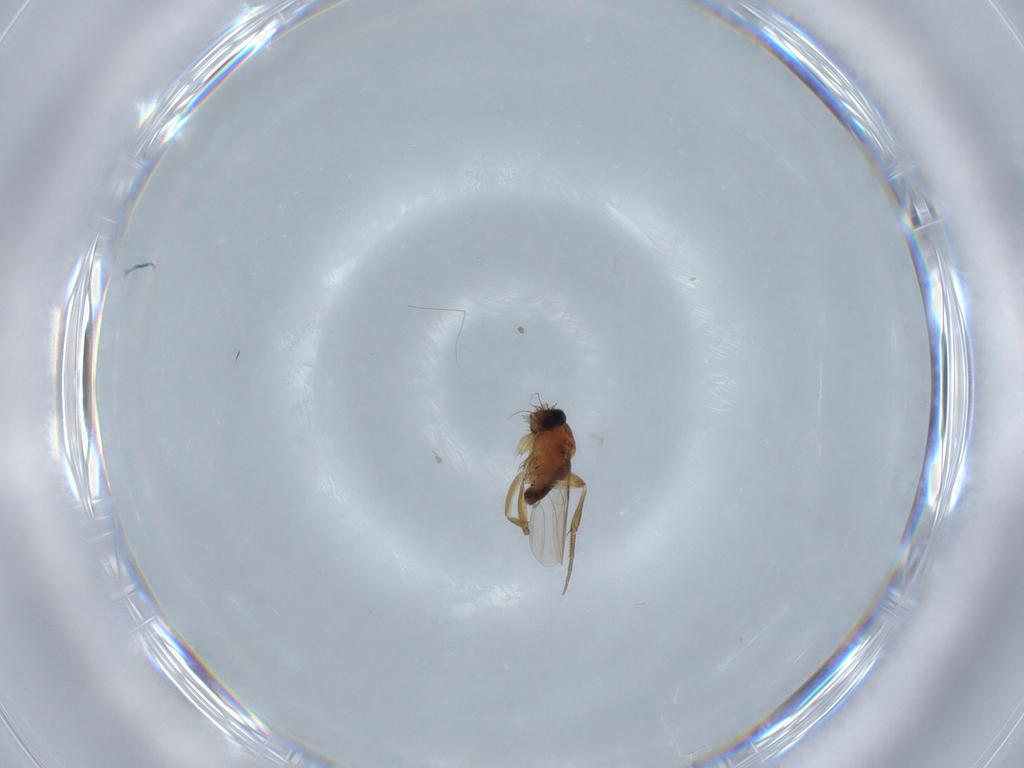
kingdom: Animalia
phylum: Arthropoda
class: Insecta
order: Diptera
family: Phoridae
